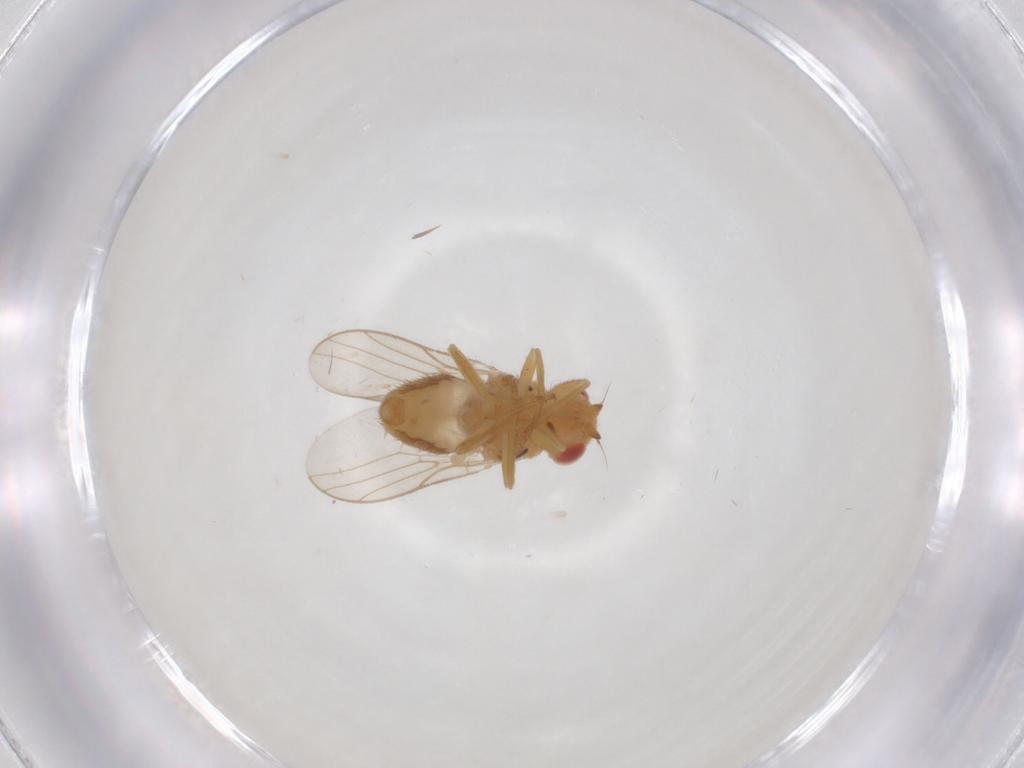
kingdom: Animalia
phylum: Arthropoda
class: Insecta
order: Diptera
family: Chloropidae
